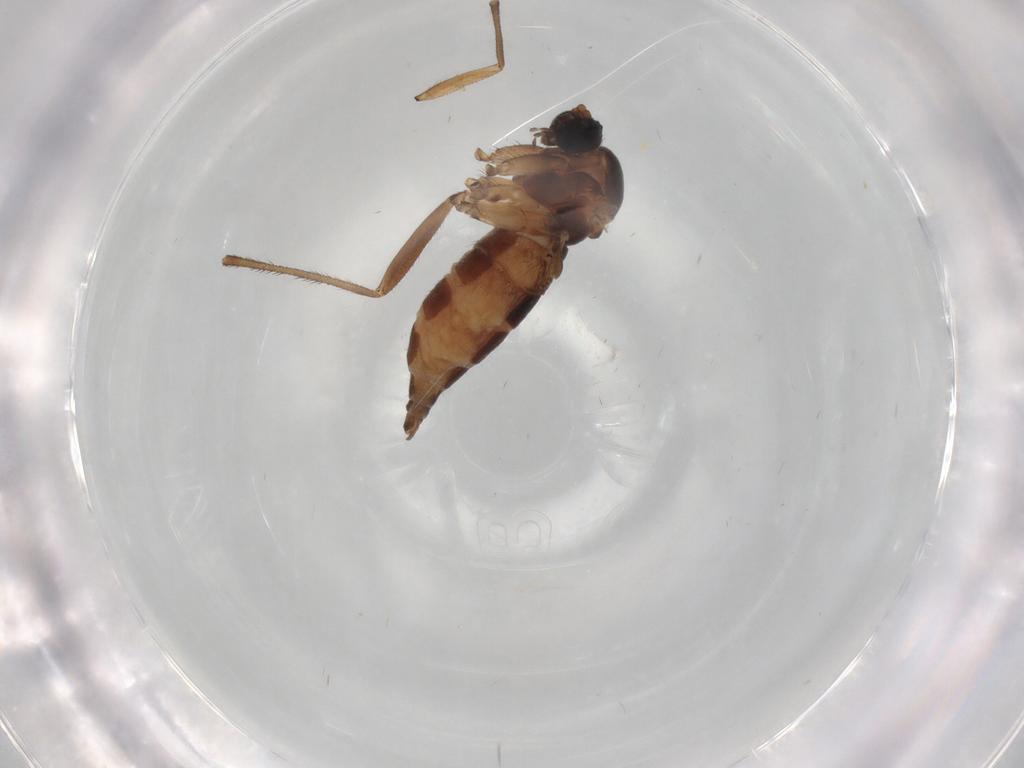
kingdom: Animalia
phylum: Arthropoda
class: Insecta
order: Diptera
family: Sciaridae
